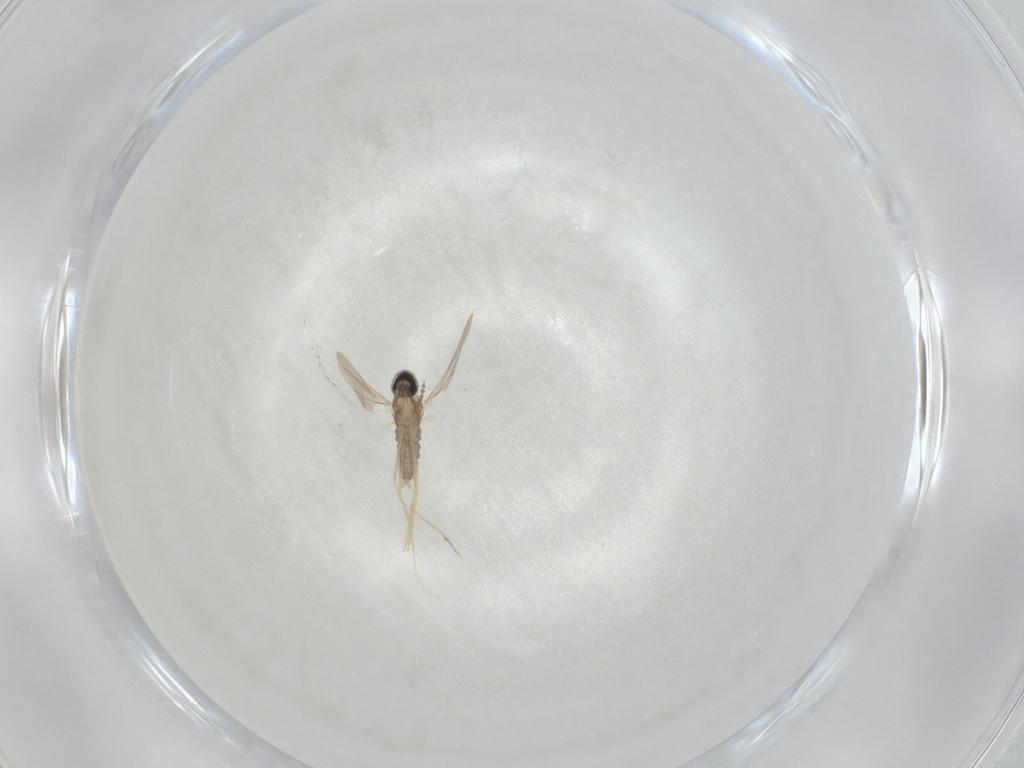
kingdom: Animalia
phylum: Arthropoda
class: Insecta
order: Diptera
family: Cecidomyiidae
